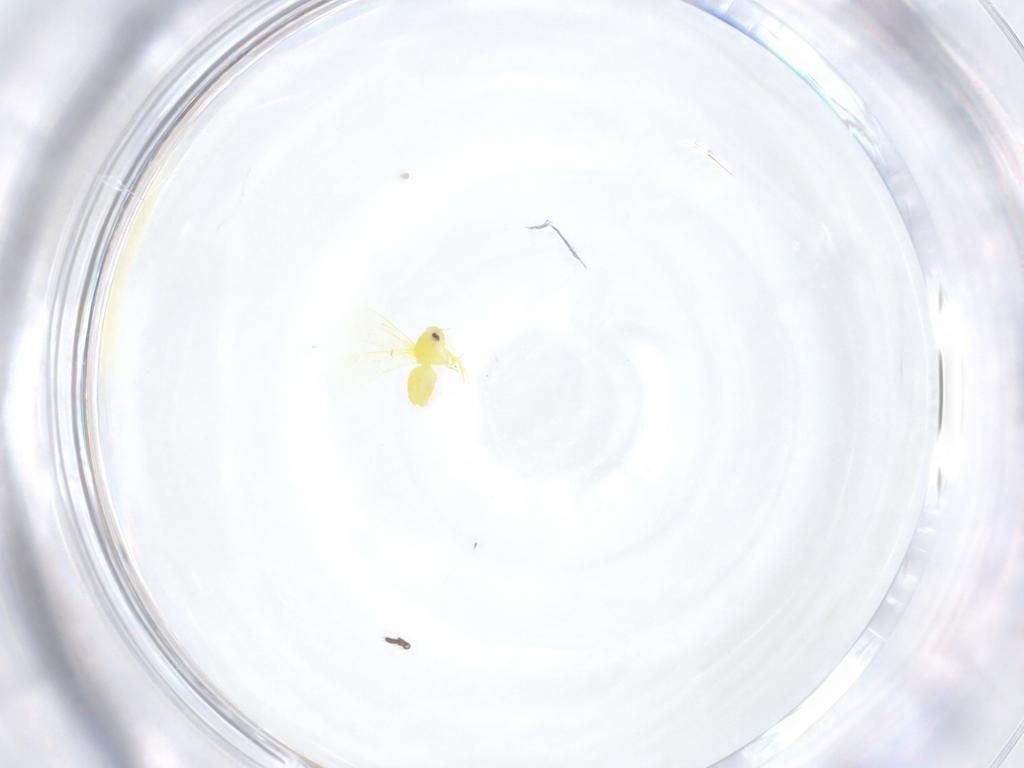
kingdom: Animalia
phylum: Arthropoda
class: Insecta
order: Diptera
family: Limoniidae
